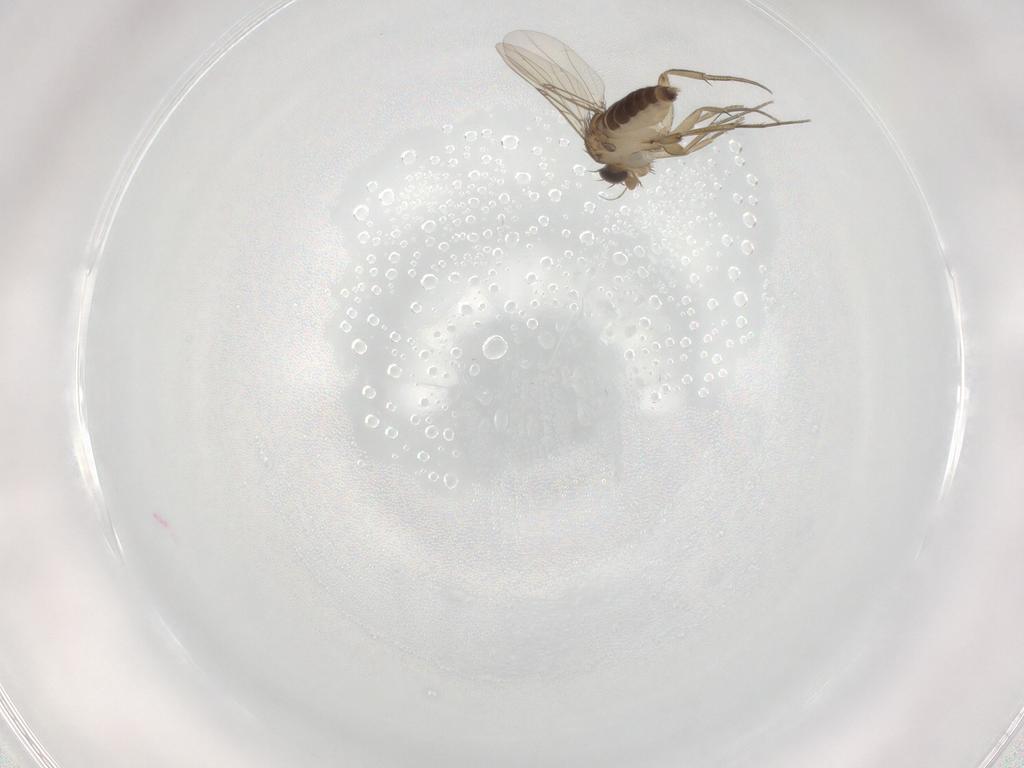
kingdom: Animalia
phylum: Arthropoda
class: Insecta
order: Diptera
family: Phoridae
